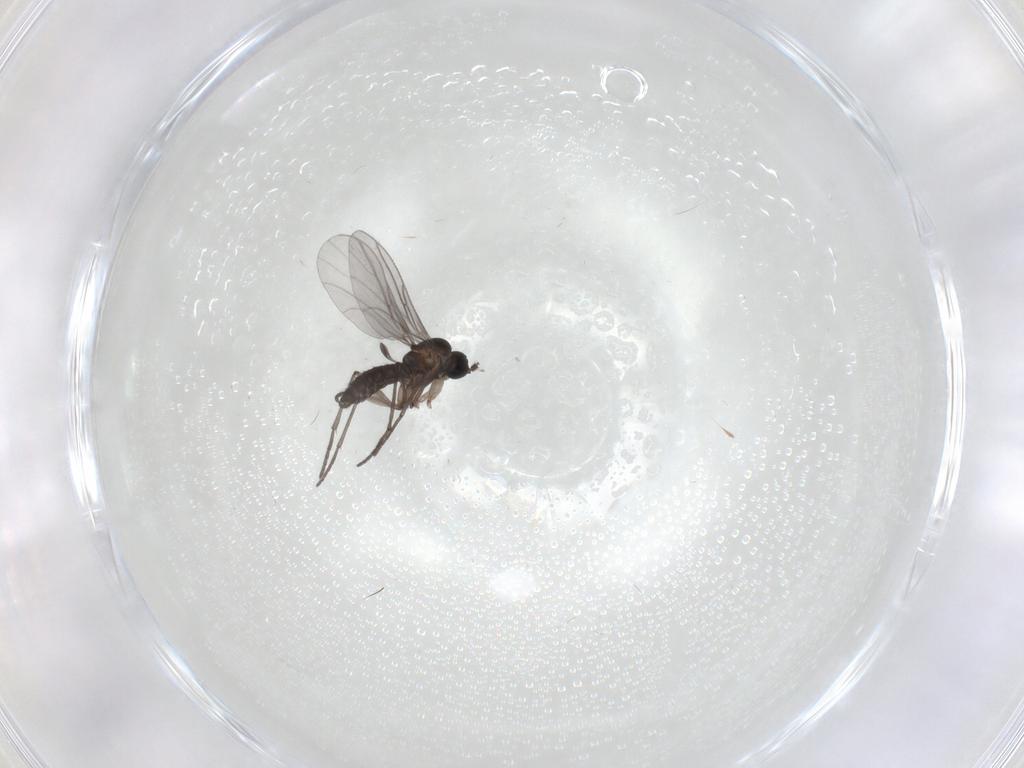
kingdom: Animalia
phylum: Arthropoda
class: Insecta
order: Diptera
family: Sciaridae
